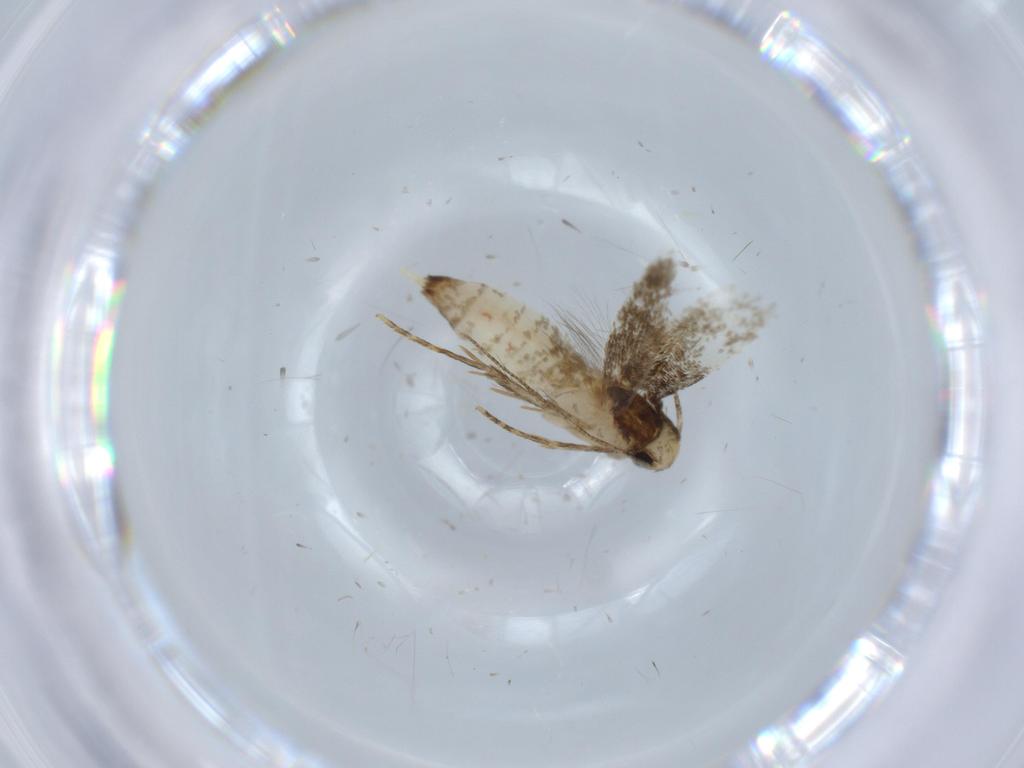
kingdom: Animalia
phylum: Arthropoda
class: Insecta
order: Lepidoptera
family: Tineidae
